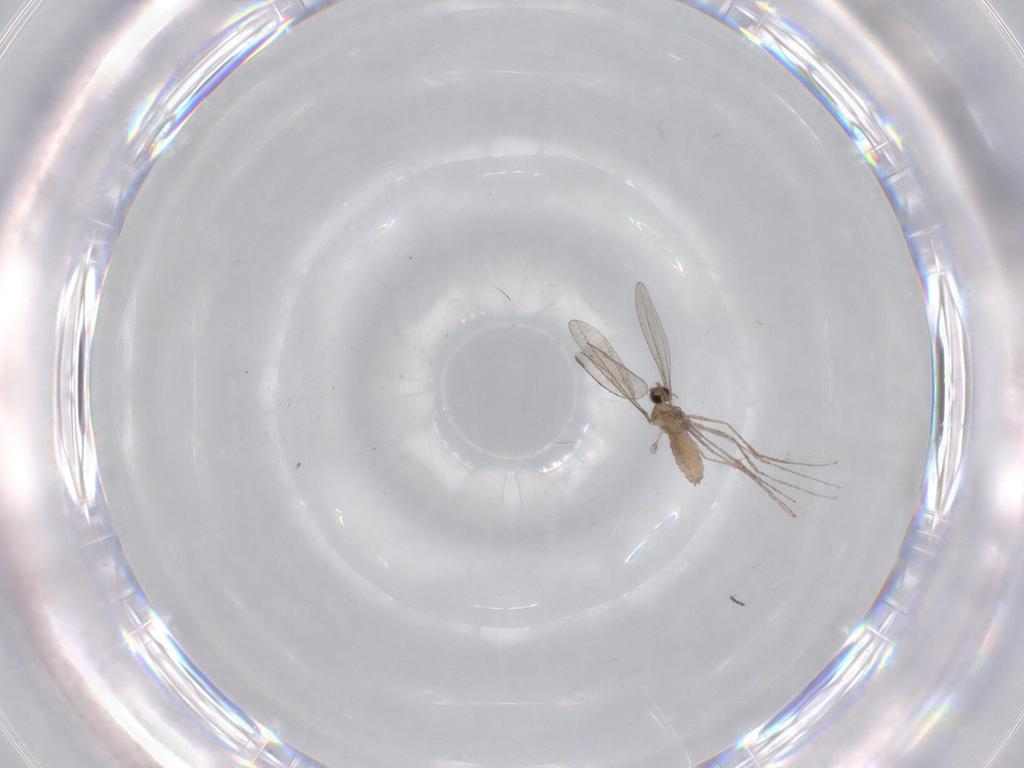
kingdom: Animalia
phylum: Arthropoda
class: Insecta
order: Diptera
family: Cecidomyiidae
